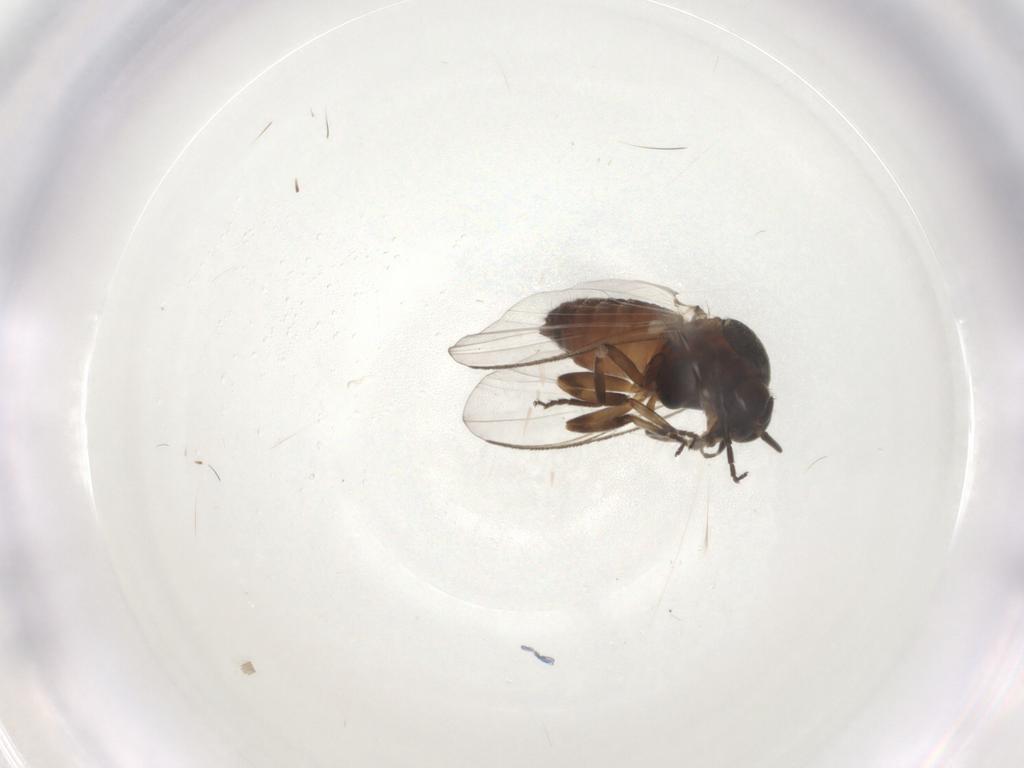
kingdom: Animalia
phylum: Arthropoda
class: Insecta
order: Diptera
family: Simuliidae
